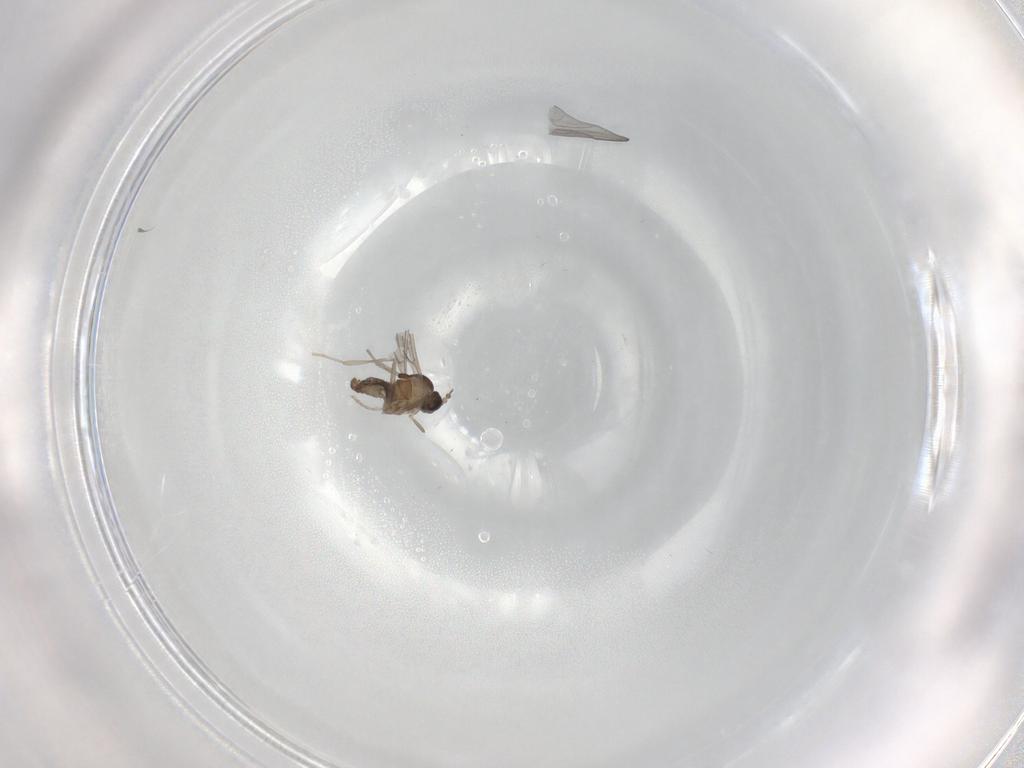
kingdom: Animalia
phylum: Arthropoda
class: Insecta
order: Diptera
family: Cecidomyiidae
